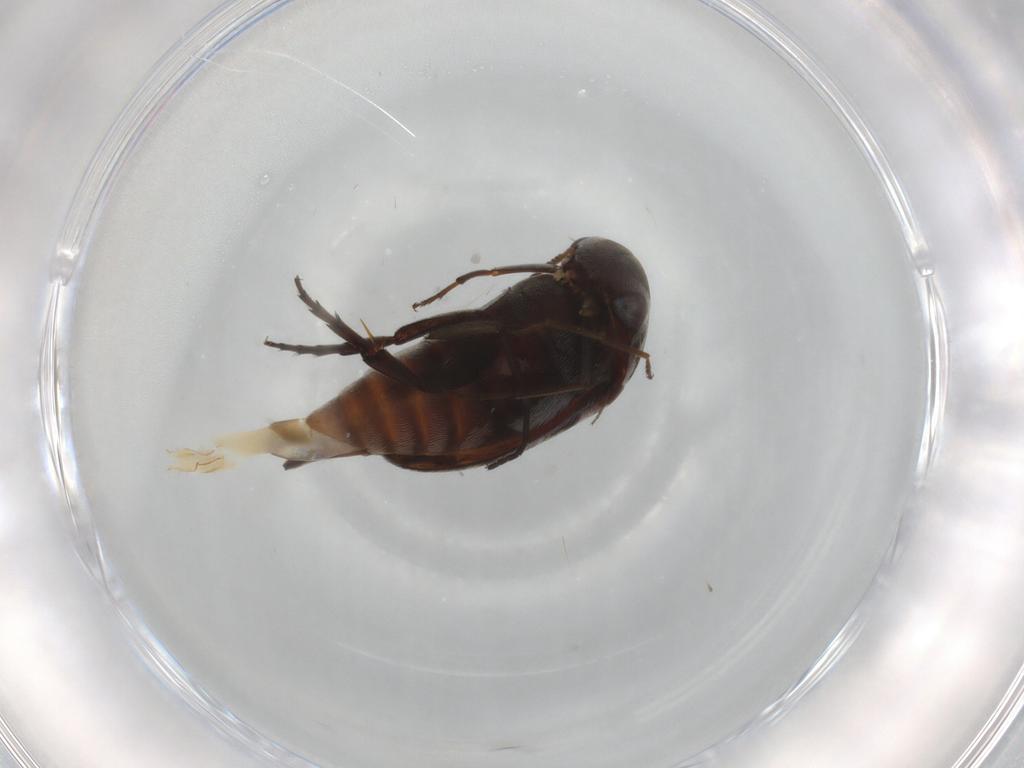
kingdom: Animalia
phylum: Arthropoda
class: Insecta
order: Coleoptera
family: Mordellidae
